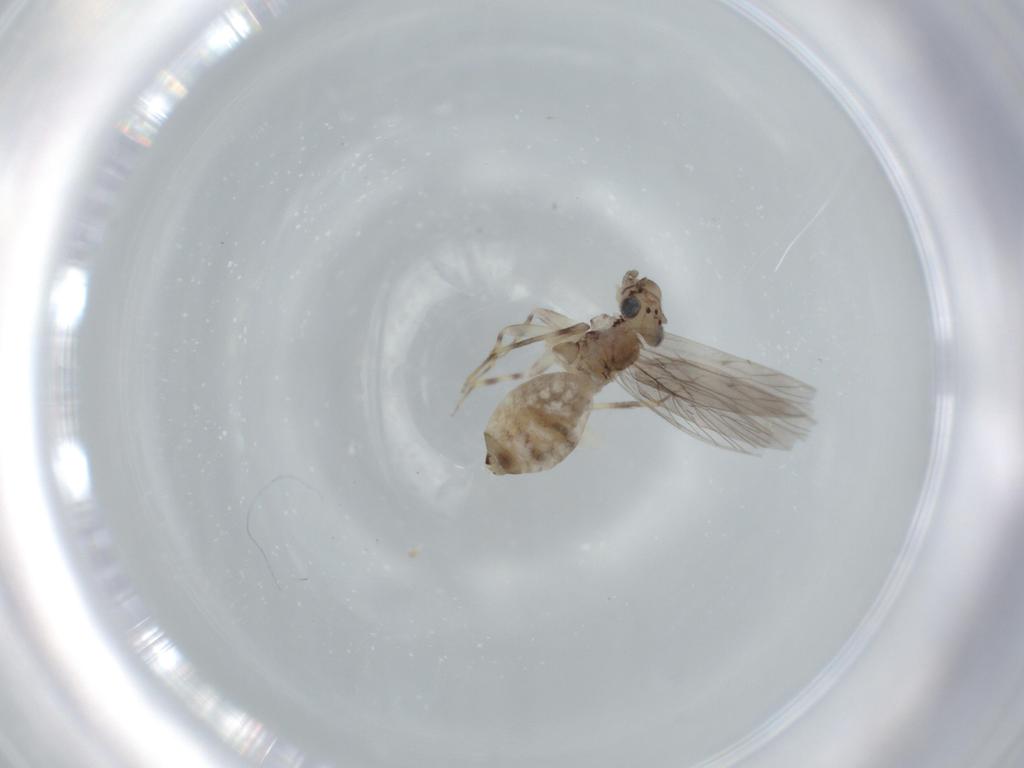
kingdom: Animalia
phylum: Arthropoda
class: Insecta
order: Psocodea
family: Lepidopsocidae
